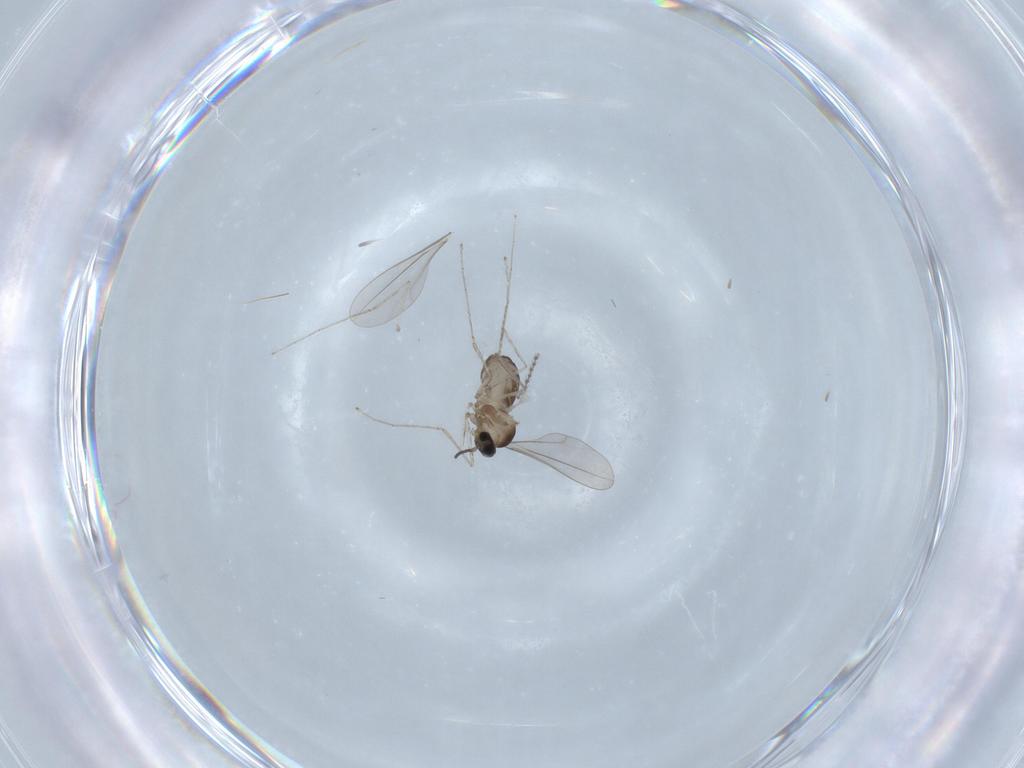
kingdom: Animalia
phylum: Arthropoda
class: Insecta
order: Diptera
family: Cecidomyiidae
